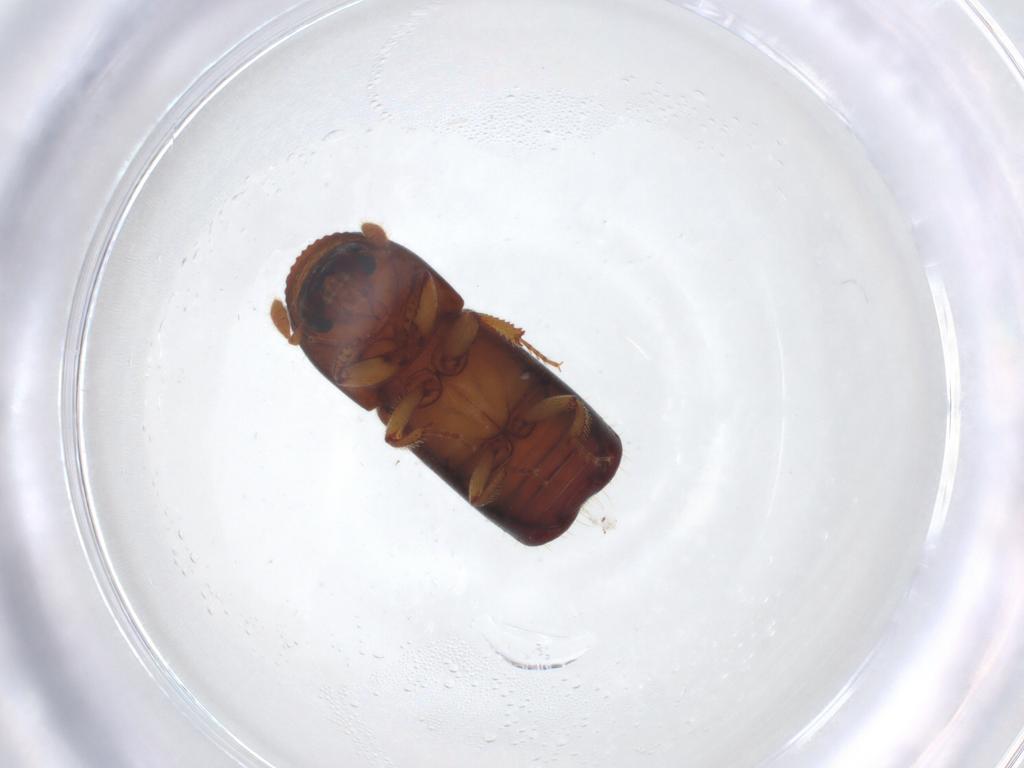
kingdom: Animalia
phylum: Arthropoda
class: Insecta
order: Coleoptera
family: Curculionidae
